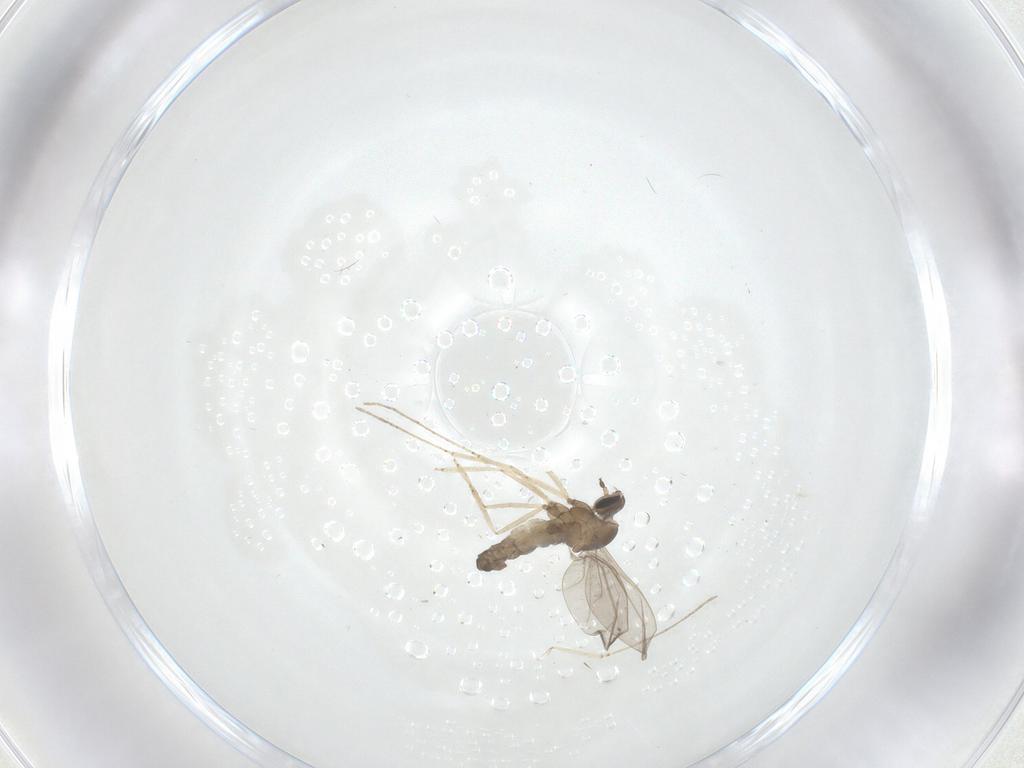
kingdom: Animalia
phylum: Arthropoda
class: Insecta
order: Diptera
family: Cecidomyiidae
